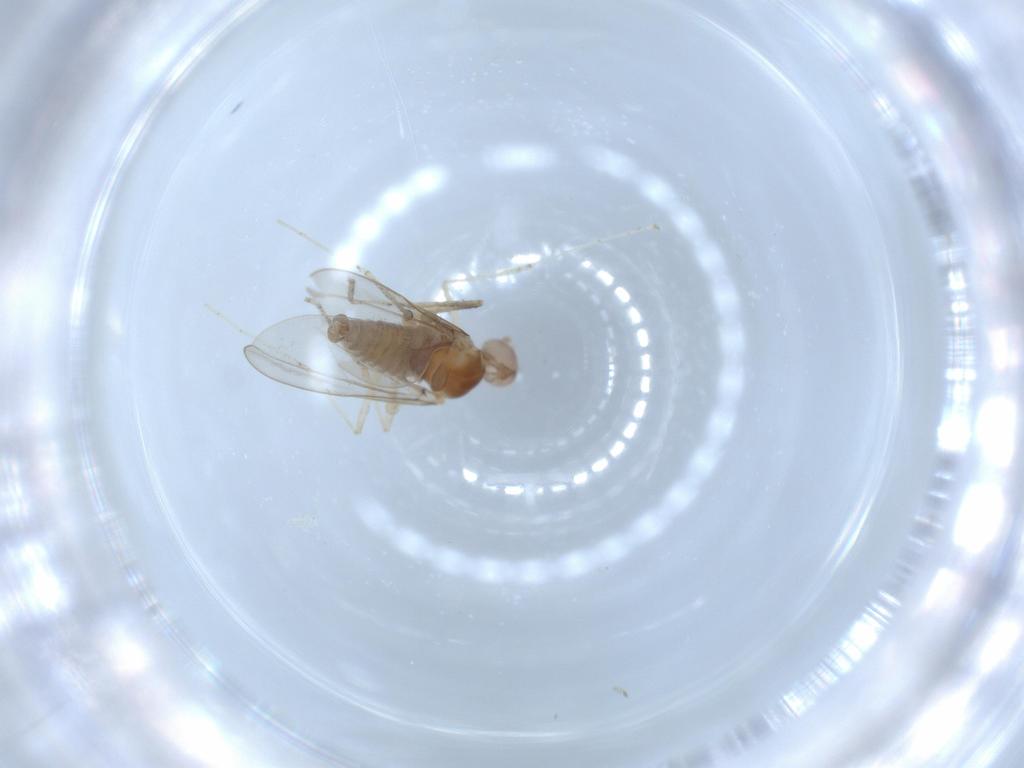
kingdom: Animalia
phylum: Arthropoda
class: Insecta
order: Diptera
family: Cecidomyiidae
